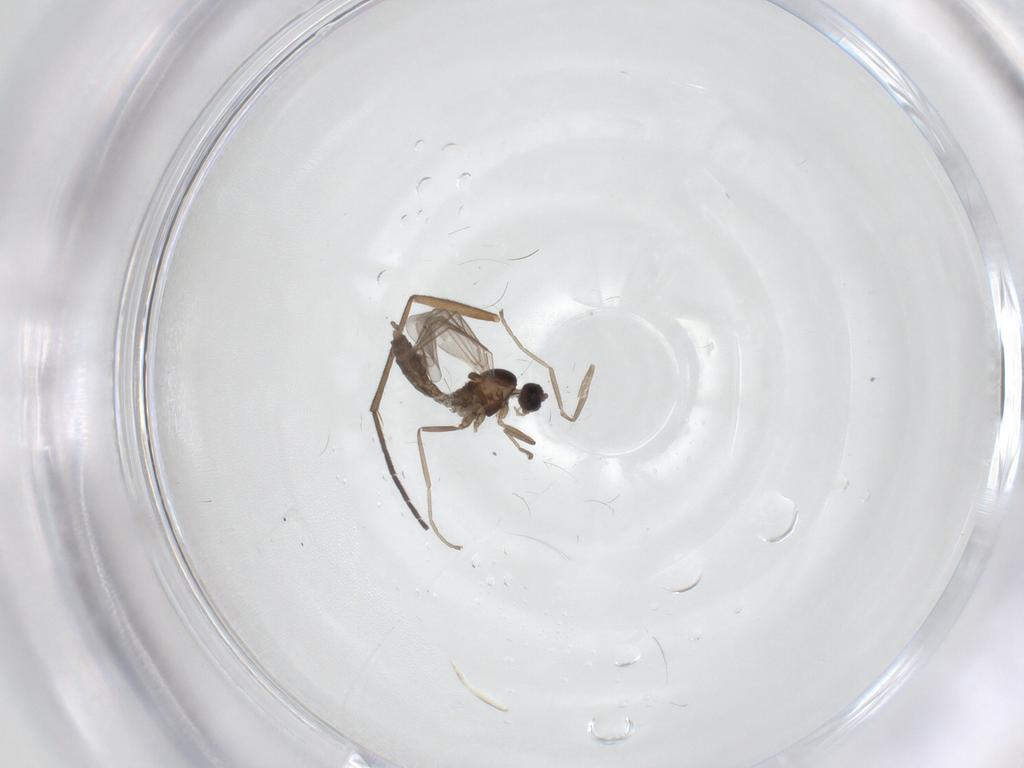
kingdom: Animalia
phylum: Arthropoda
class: Insecta
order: Diptera
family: Cecidomyiidae
